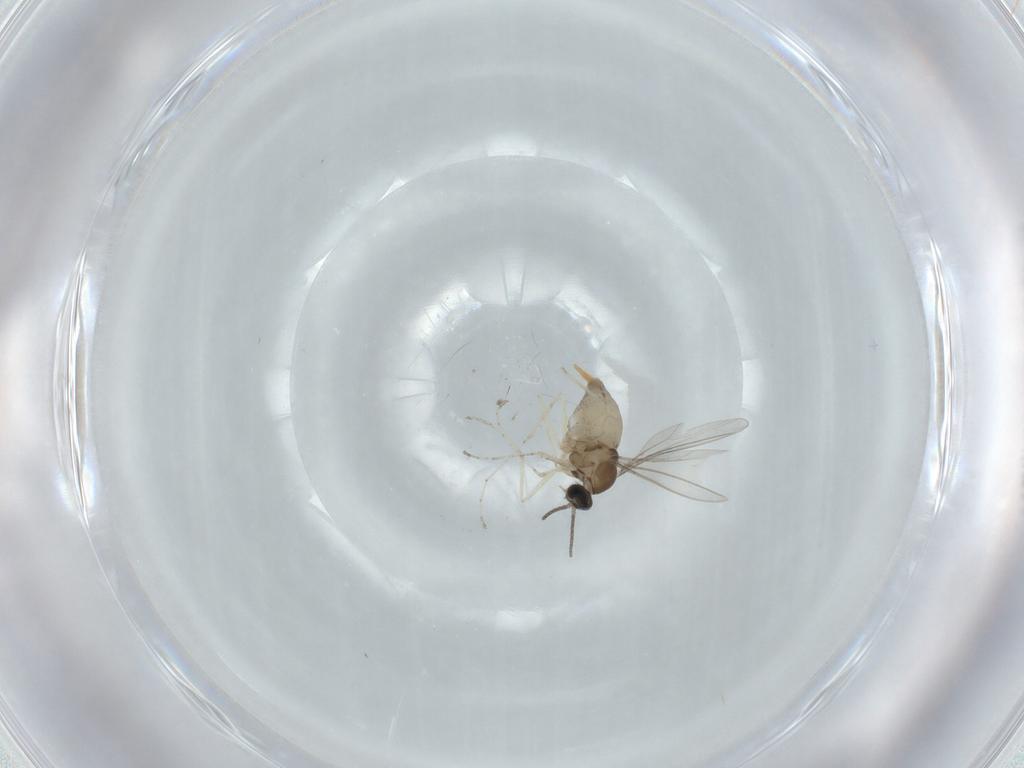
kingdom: Animalia
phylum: Arthropoda
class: Insecta
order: Diptera
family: Cecidomyiidae
